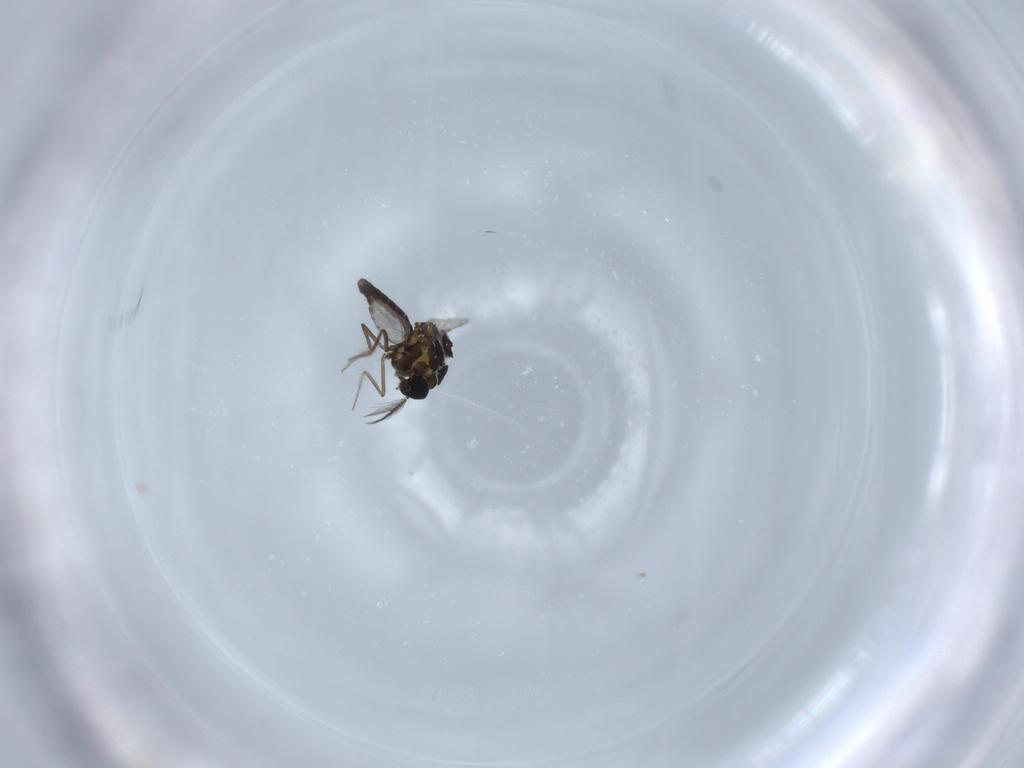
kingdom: Animalia
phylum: Arthropoda
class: Insecta
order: Diptera
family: Ceratopogonidae
